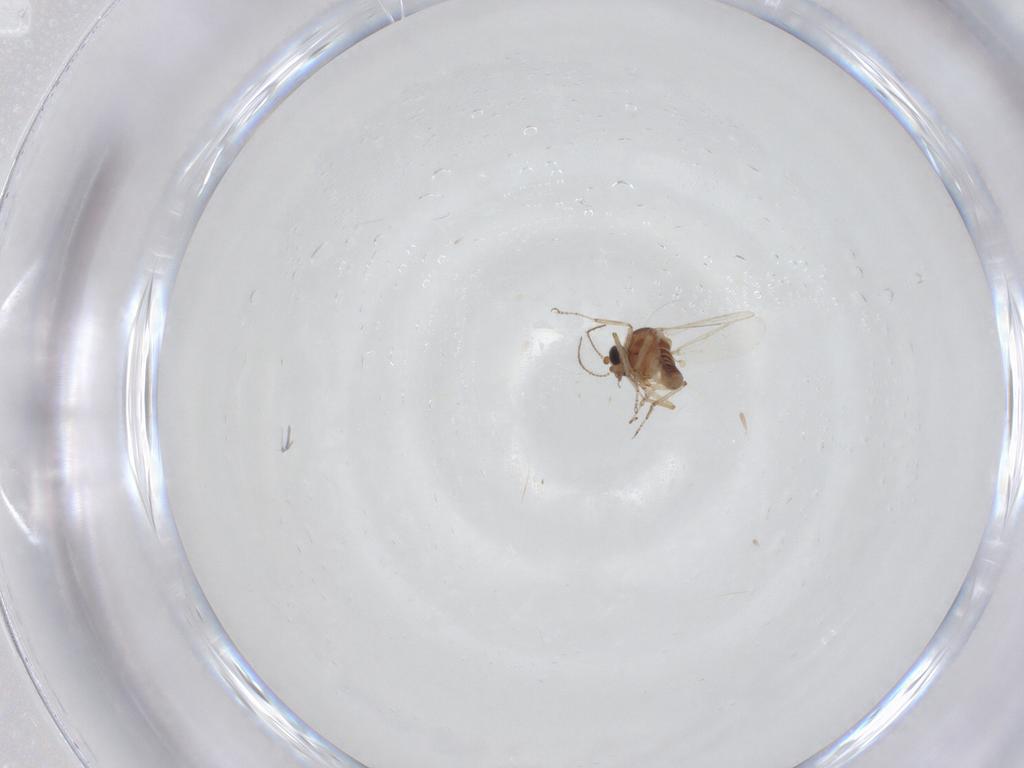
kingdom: Animalia
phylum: Arthropoda
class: Insecta
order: Diptera
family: Ceratopogonidae
